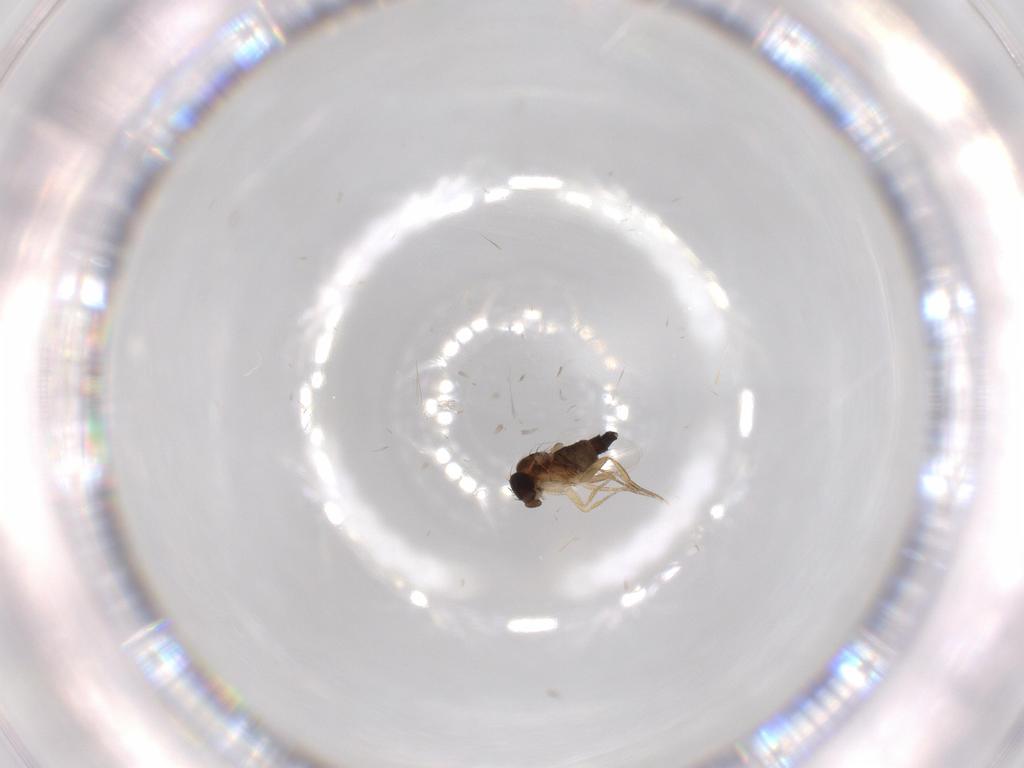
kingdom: Animalia
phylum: Arthropoda
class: Insecta
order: Diptera
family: Phoridae
